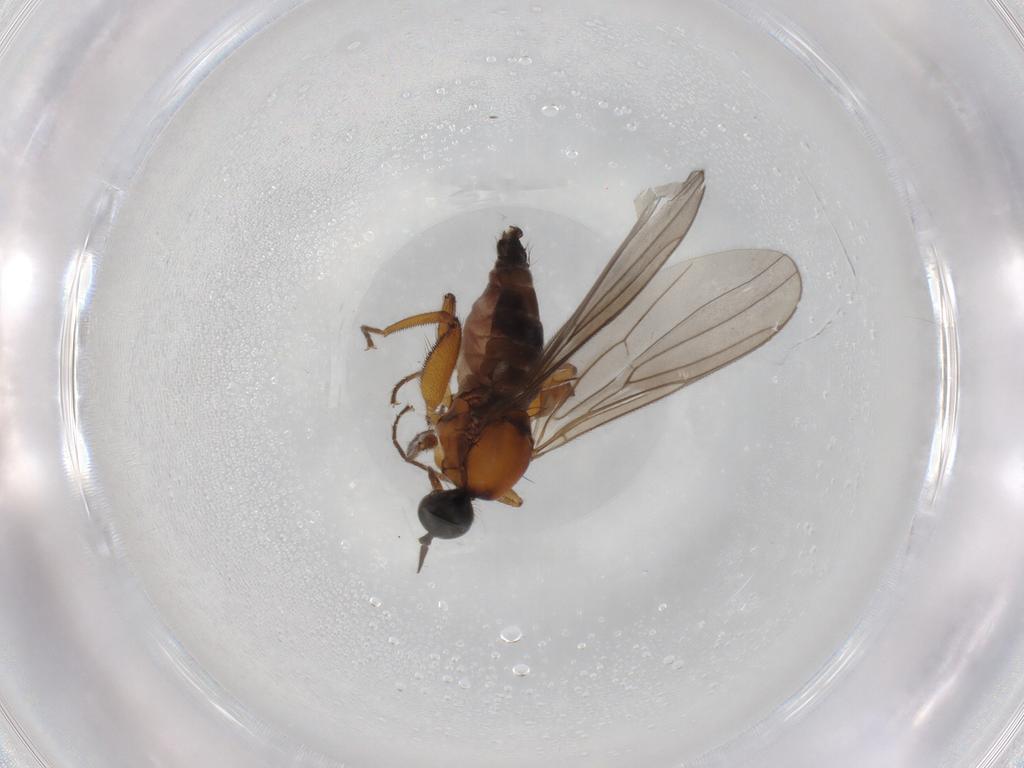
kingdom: Animalia
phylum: Arthropoda
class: Insecta
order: Diptera
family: Hybotidae
